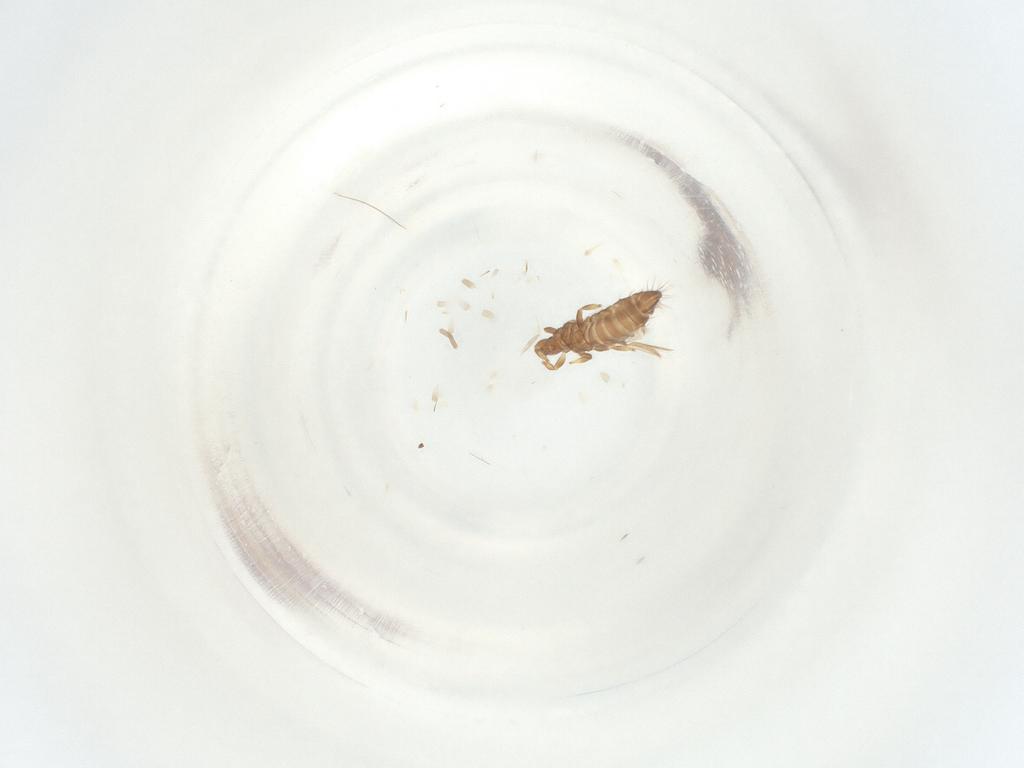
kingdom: Animalia
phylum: Arthropoda
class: Insecta
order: Thysanoptera
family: Thripidae
